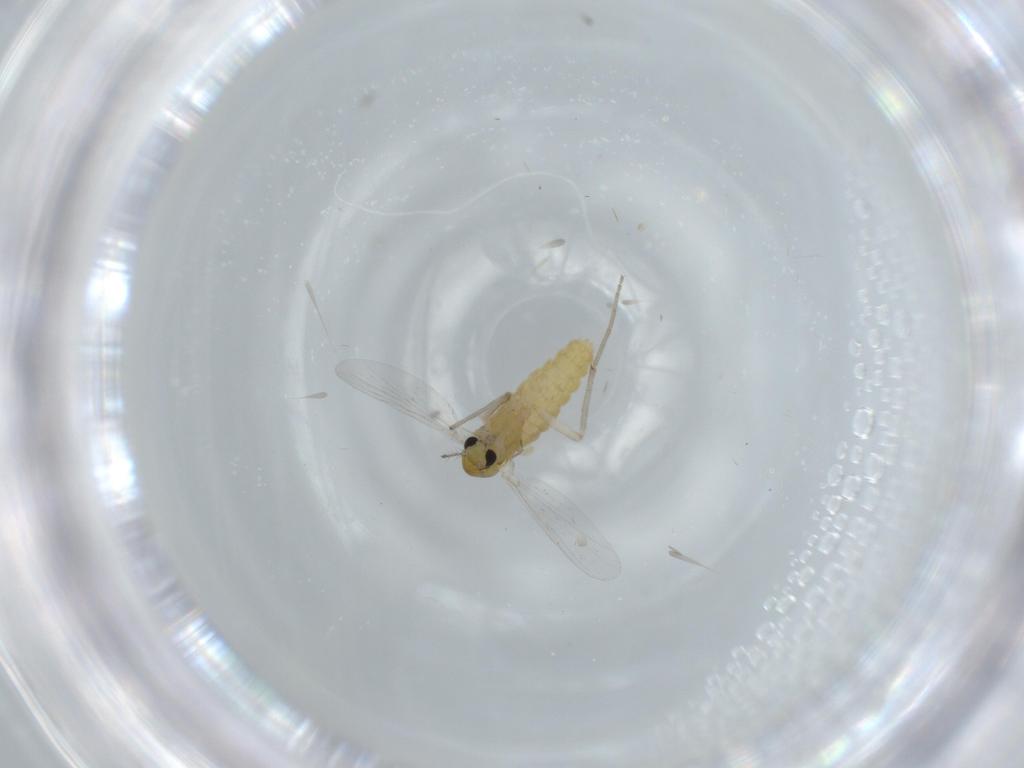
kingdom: Animalia
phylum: Arthropoda
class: Insecta
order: Diptera
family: Chironomidae
